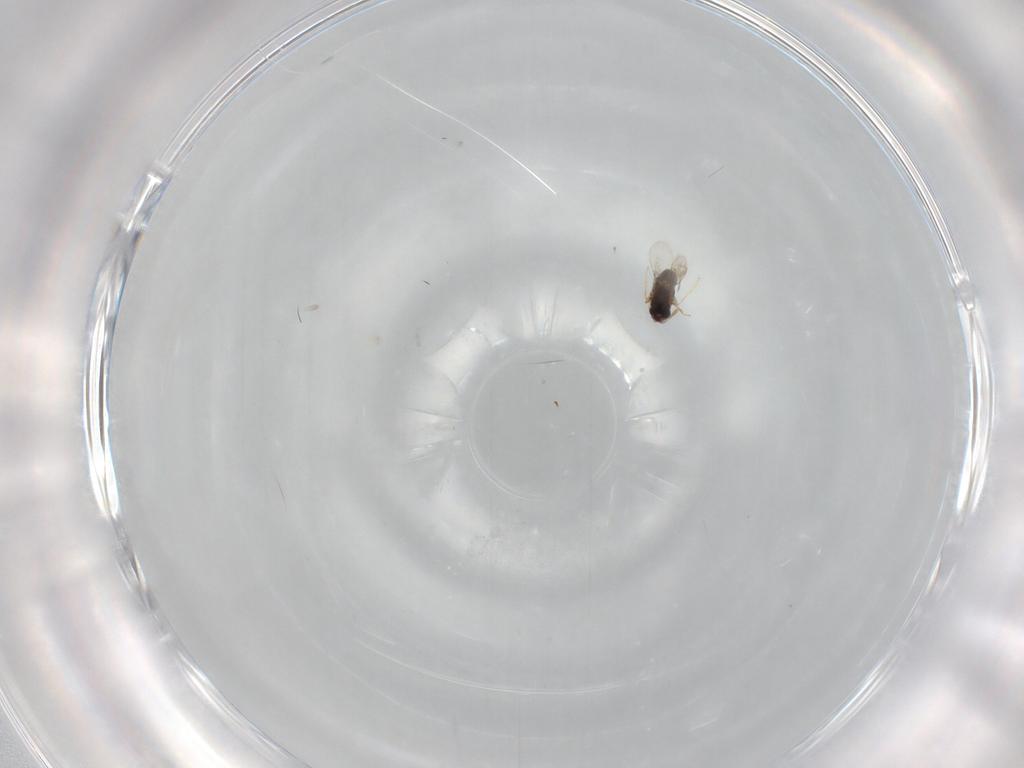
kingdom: Animalia
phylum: Arthropoda
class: Insecta
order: Hymenoptera
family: Encyrtidae
